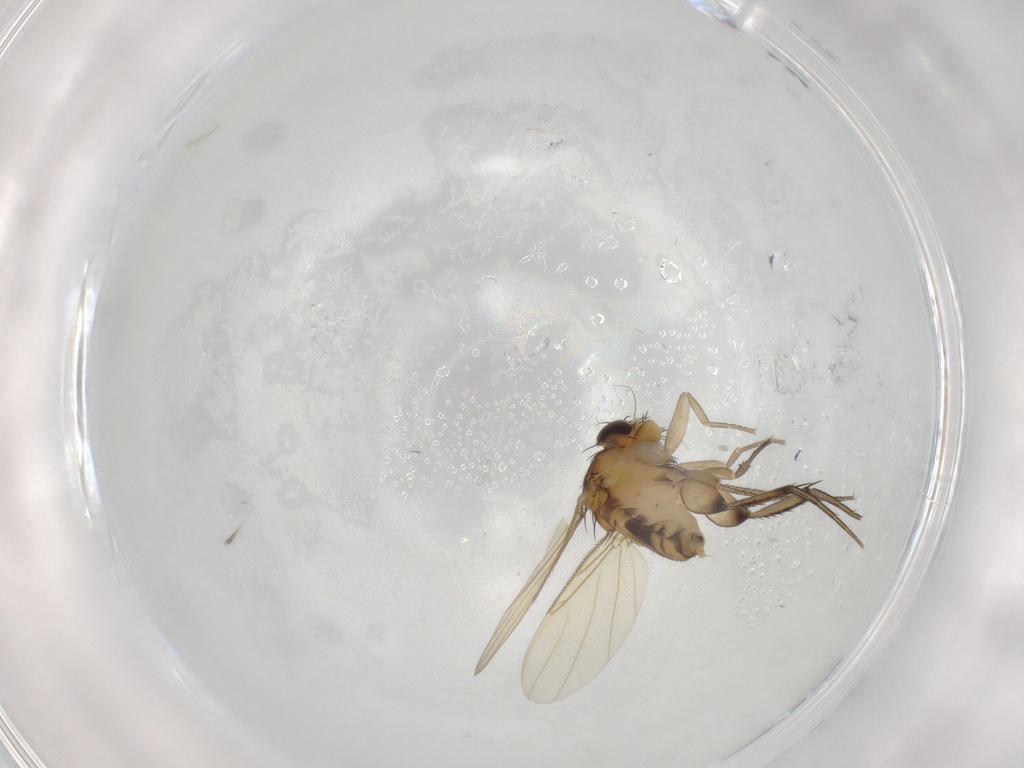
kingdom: Animalia
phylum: Arthropoda
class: Insecta
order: Diptera
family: Phoridae
